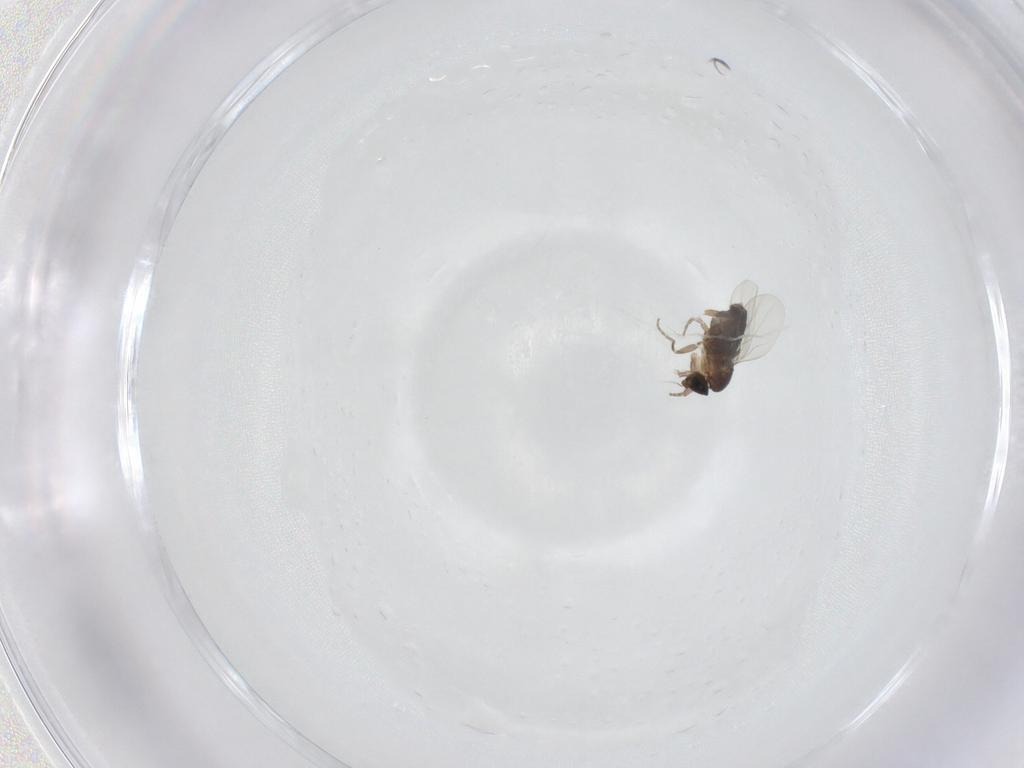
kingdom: Animalia
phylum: Arthropoda
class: Insecta
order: Diptera
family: Phoridae
